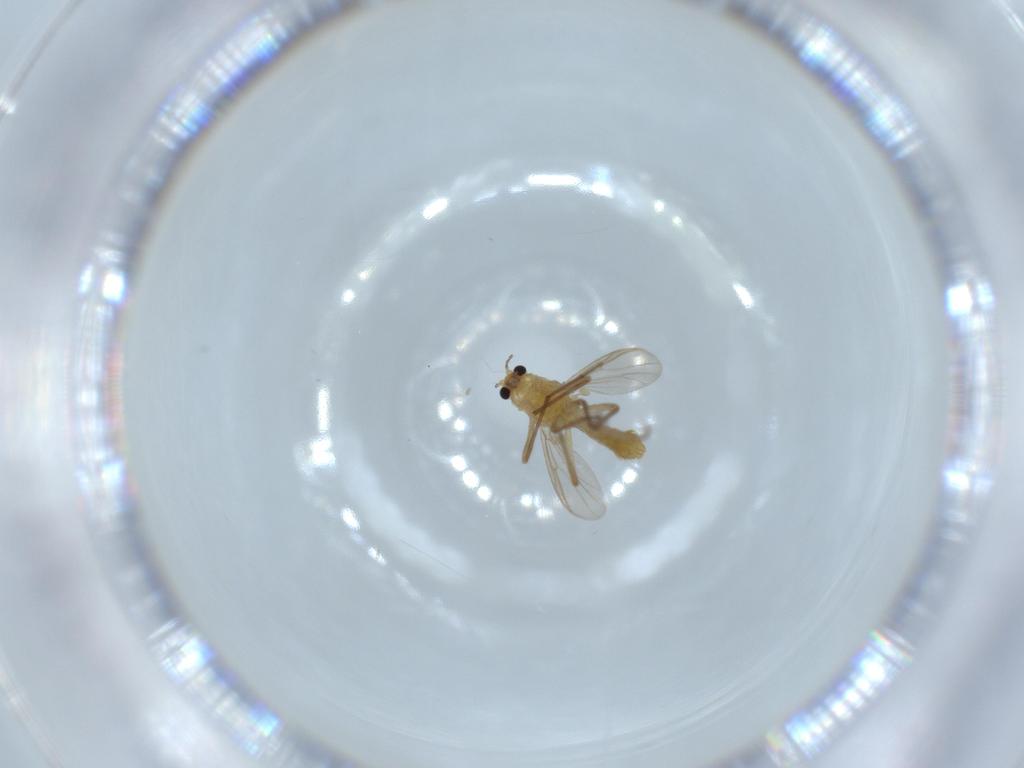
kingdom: Animalia
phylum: Arthropoda
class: Insecta
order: Diptera
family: Chironomidae
